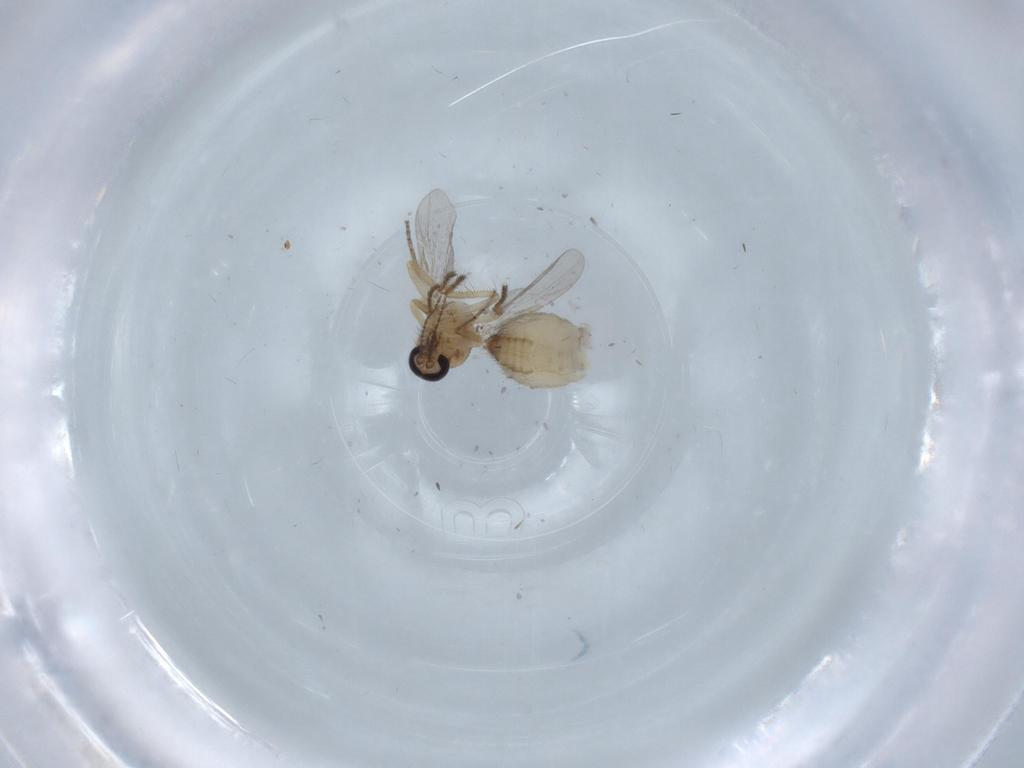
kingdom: Animalia
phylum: Arthropoda
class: Insecta
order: Diptera
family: Ceratopogonidae
